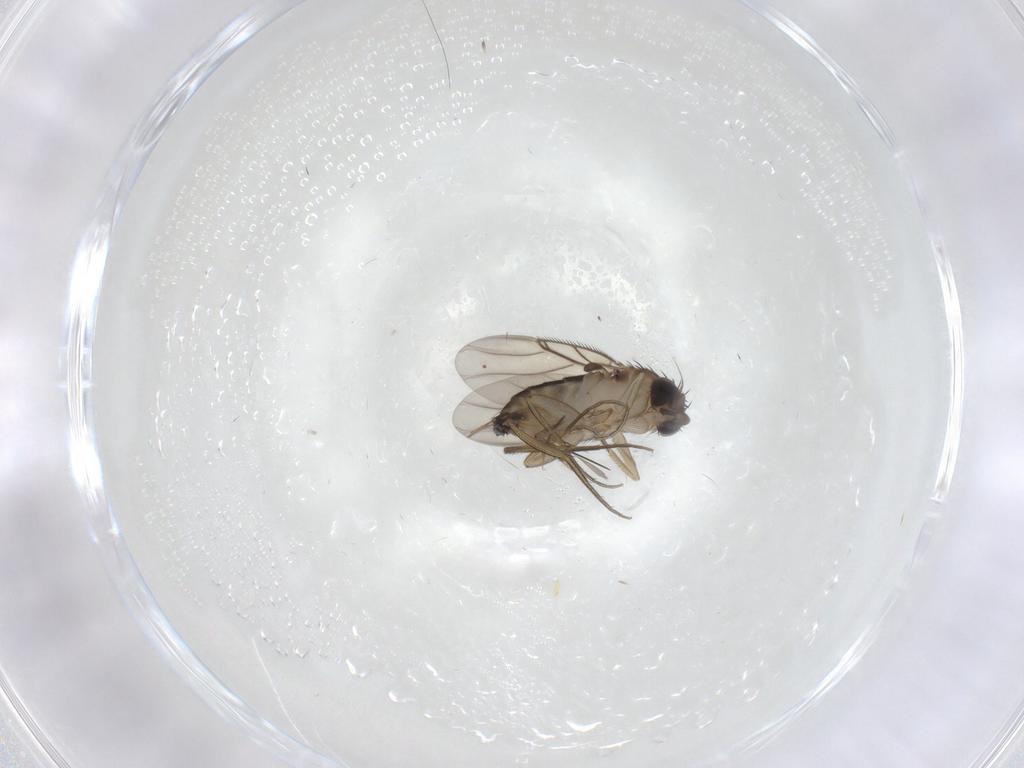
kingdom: Animalia
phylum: Arthropoda
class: Insecta
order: Diptera
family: Phoridae
